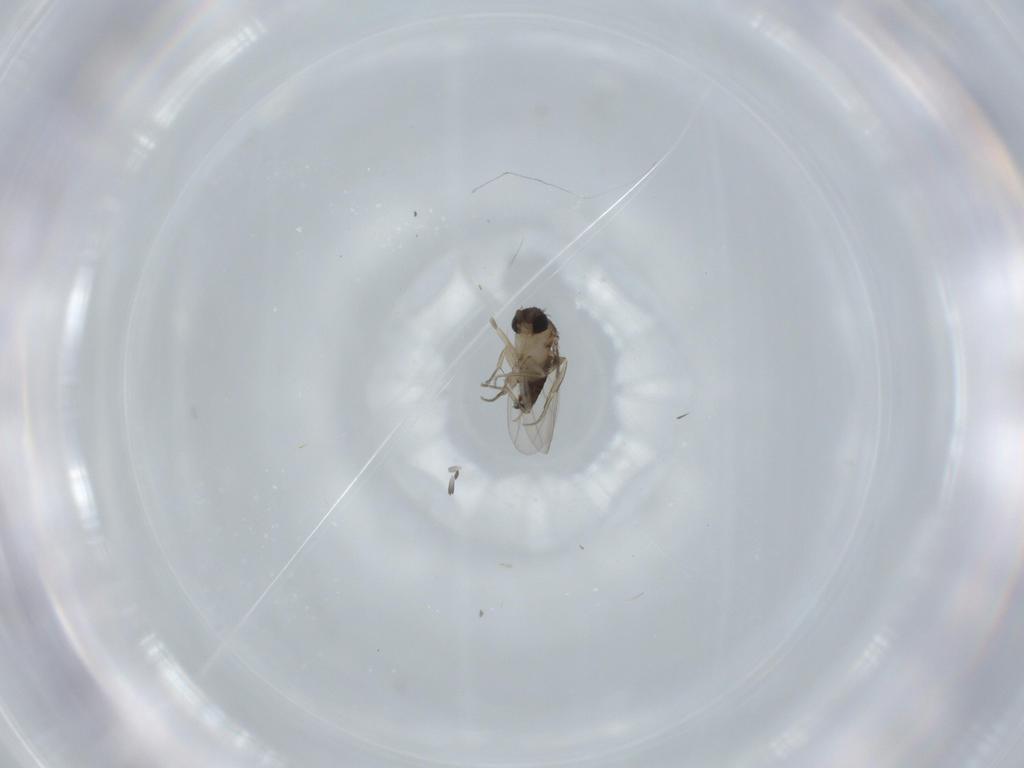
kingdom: Animalia
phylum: Arthropoda
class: Insecta
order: Diptera
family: Phoridae
